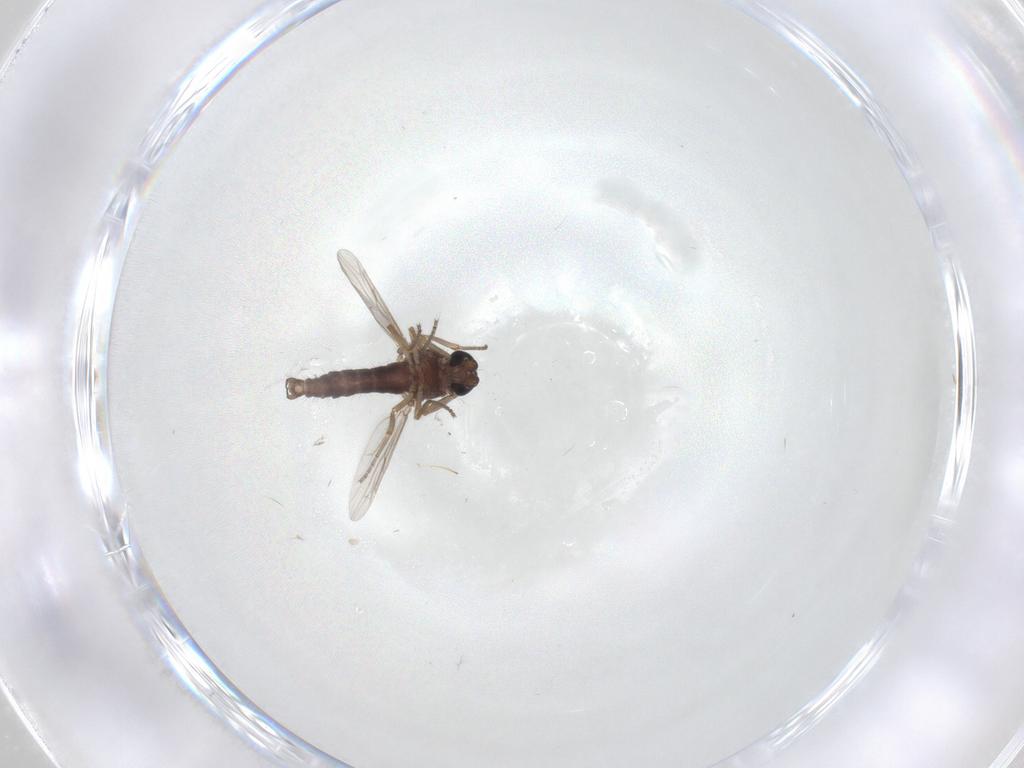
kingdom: Animalia
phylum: Arthropoda
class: Insecta
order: Diptera
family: Ceratopogonidae
